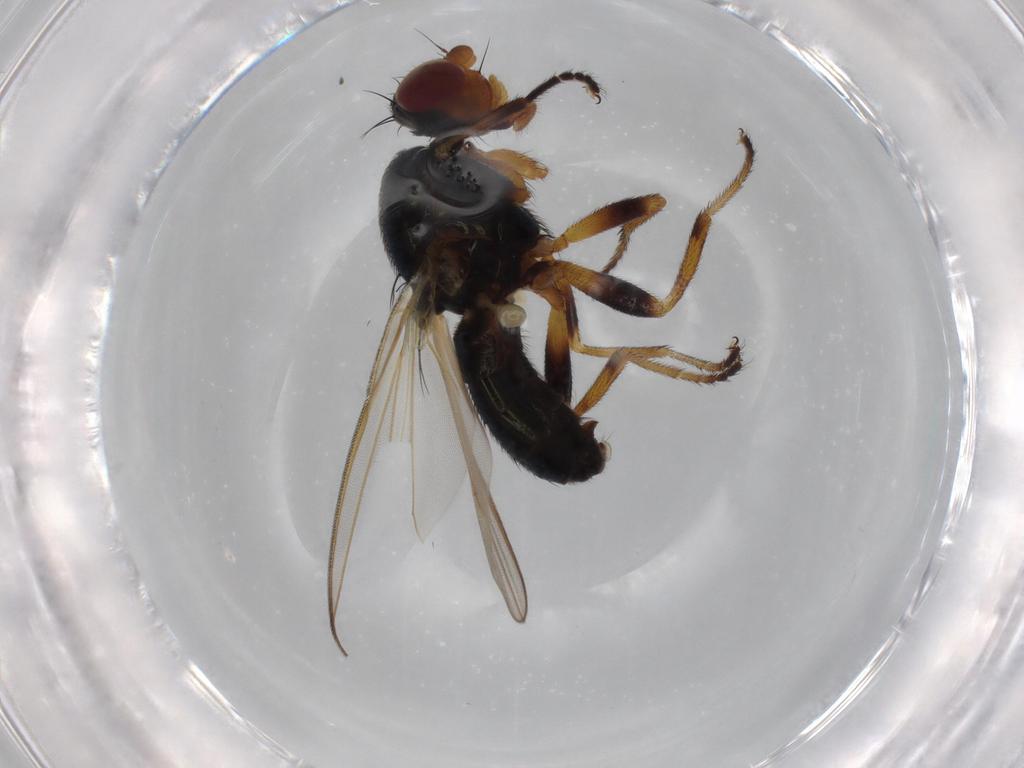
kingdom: Animalia
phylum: Arthropoda
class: Insecta
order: Diptera
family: Piophilidae
